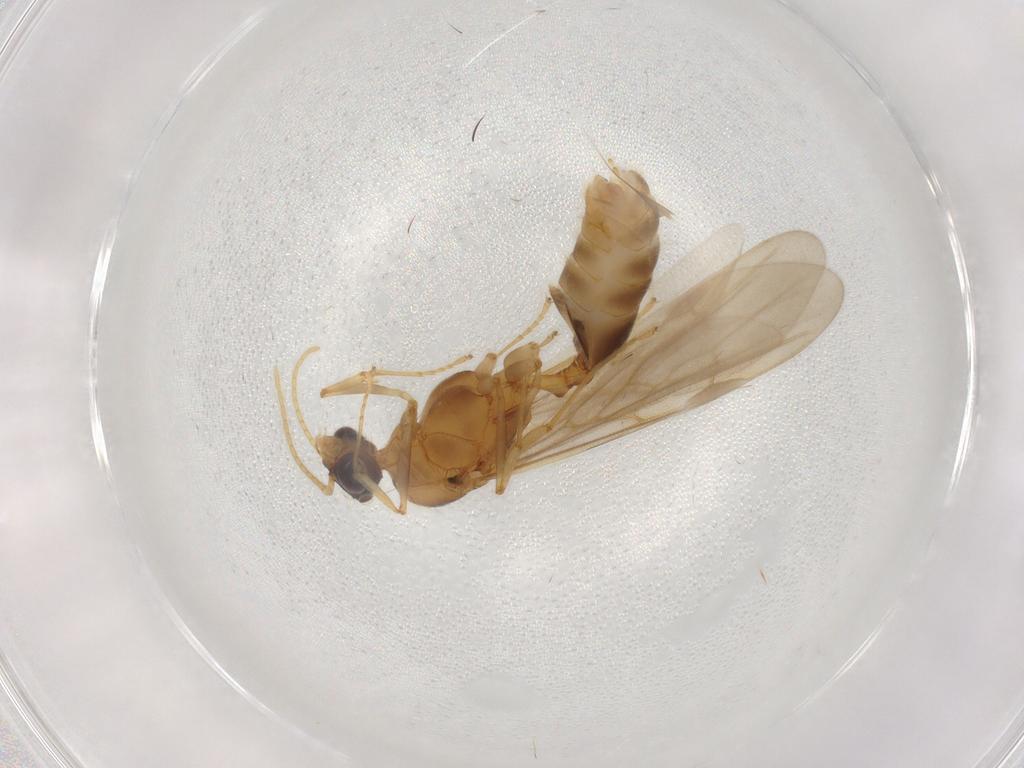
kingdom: Animalia
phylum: Arthropoda
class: Insecta
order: Hymenoptera
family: Formicidae
